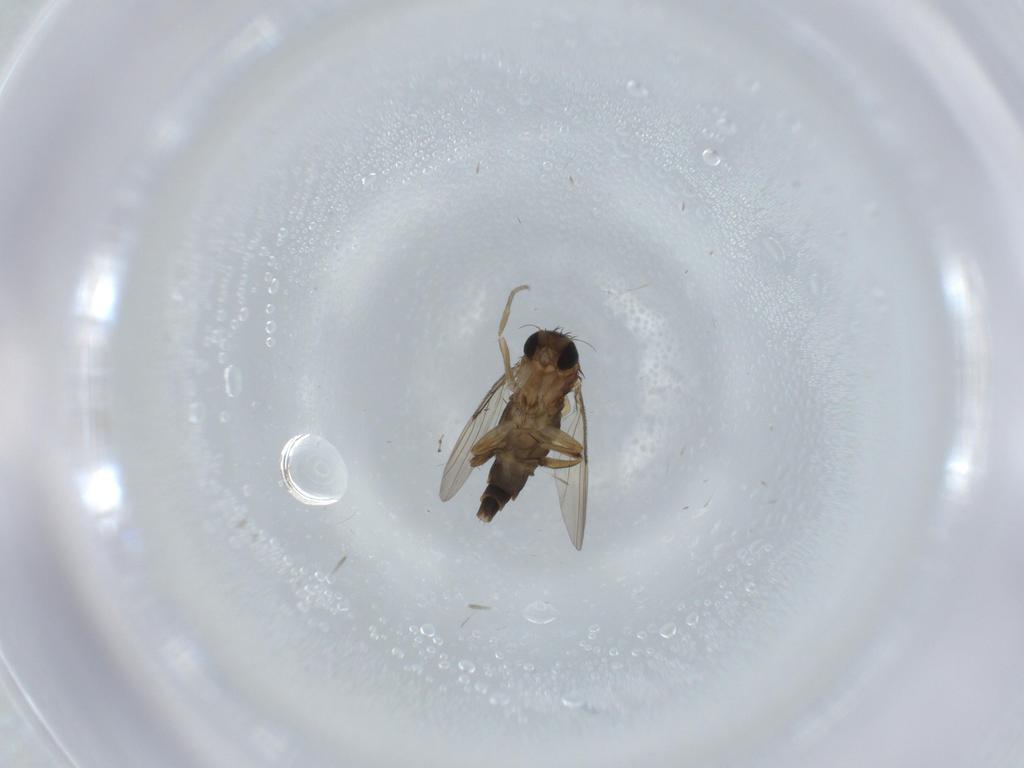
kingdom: Animalia
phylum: Arthropoda
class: Insecta
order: Diptera
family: Phoridae
